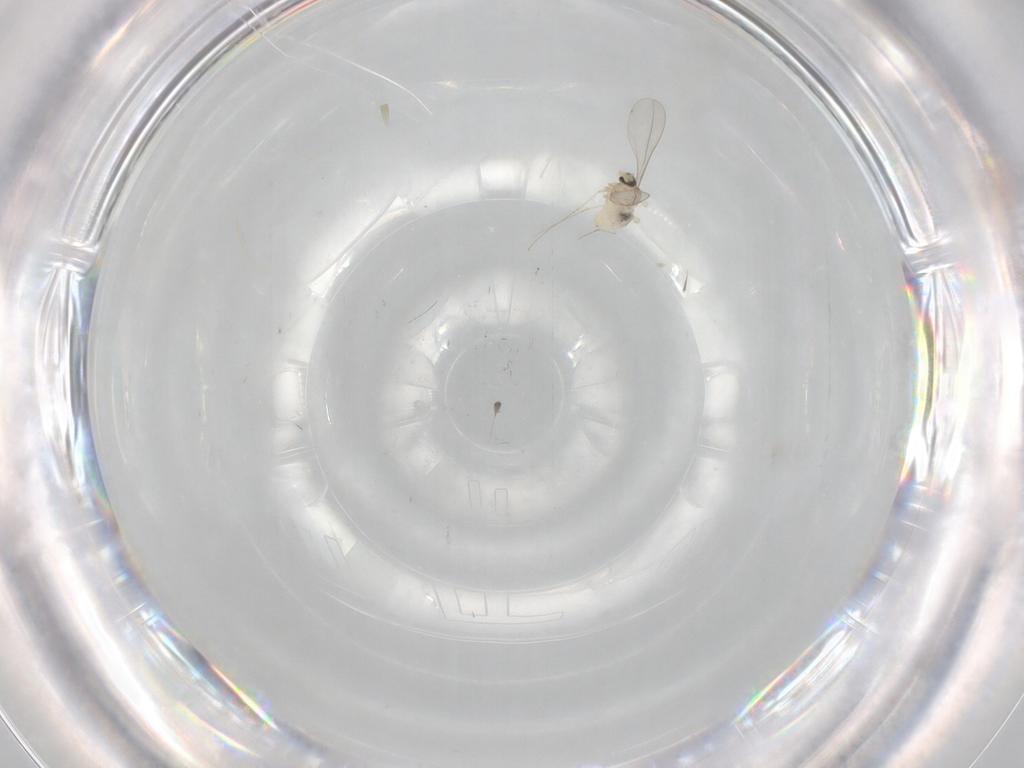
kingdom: Animalia
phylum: Arthropoda
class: Insecta
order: Diptera
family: Cecidomyiidae
